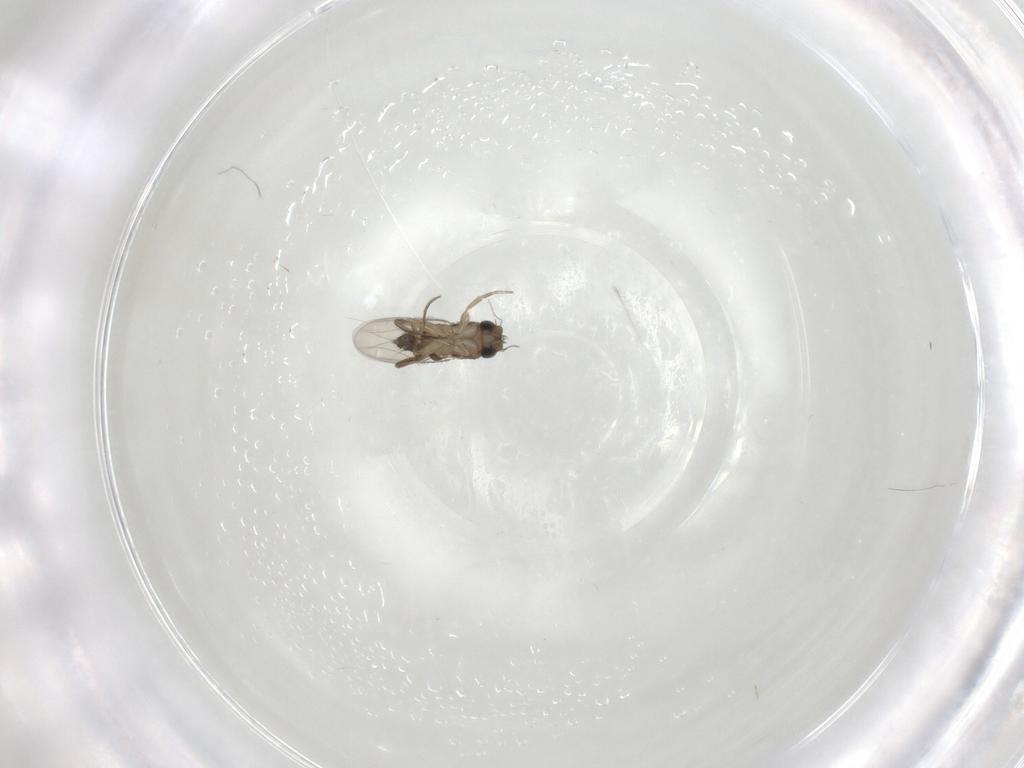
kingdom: Animalia
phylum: Arthropoda
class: Insecta
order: Diptera
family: Phoridae
